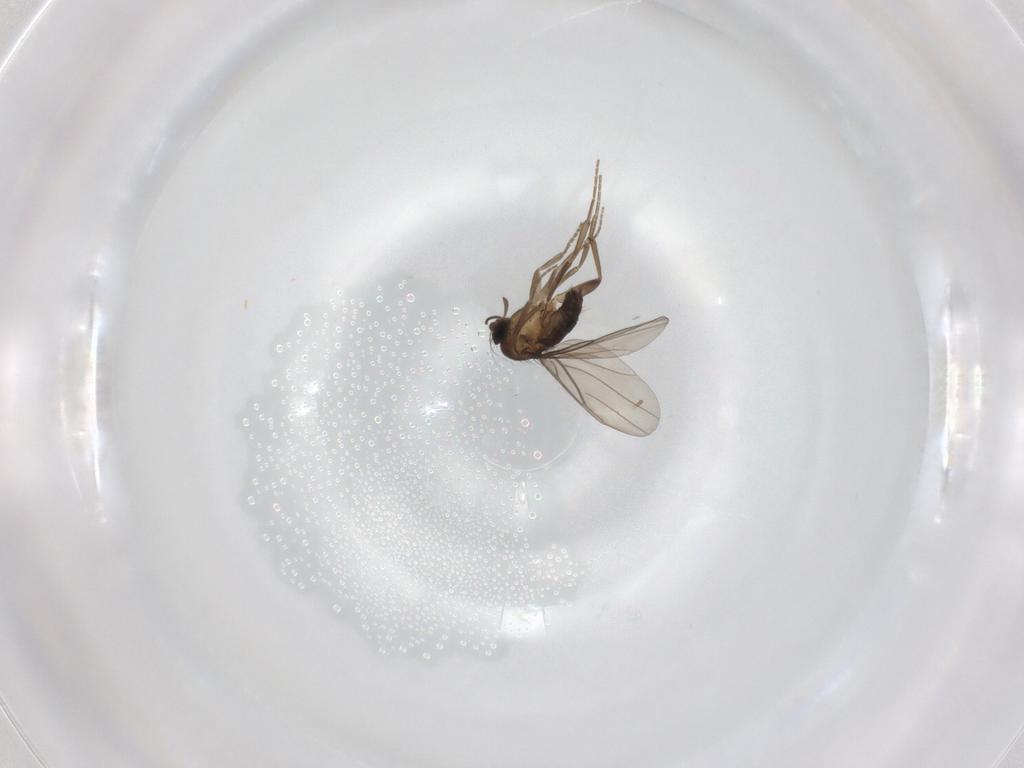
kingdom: Animalia
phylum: Arthropoda
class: Insecta
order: Diptera
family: Phoridae
